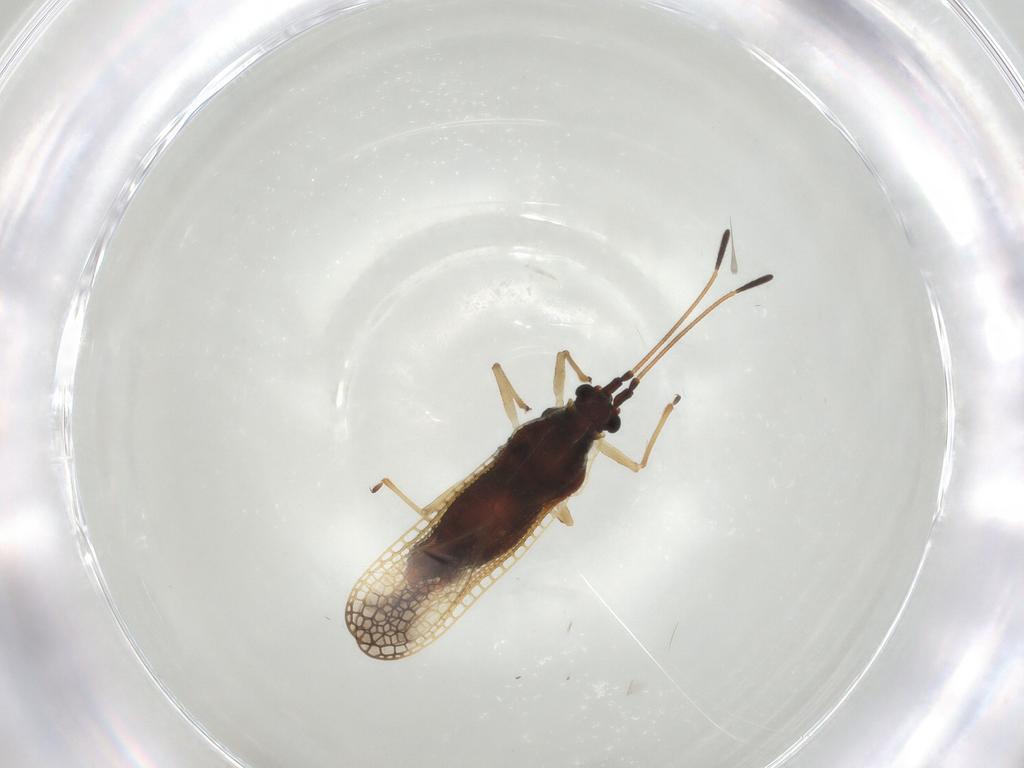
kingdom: Animalia
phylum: Arthropoda
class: Insecta
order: Hemiptera
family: Tingidae
